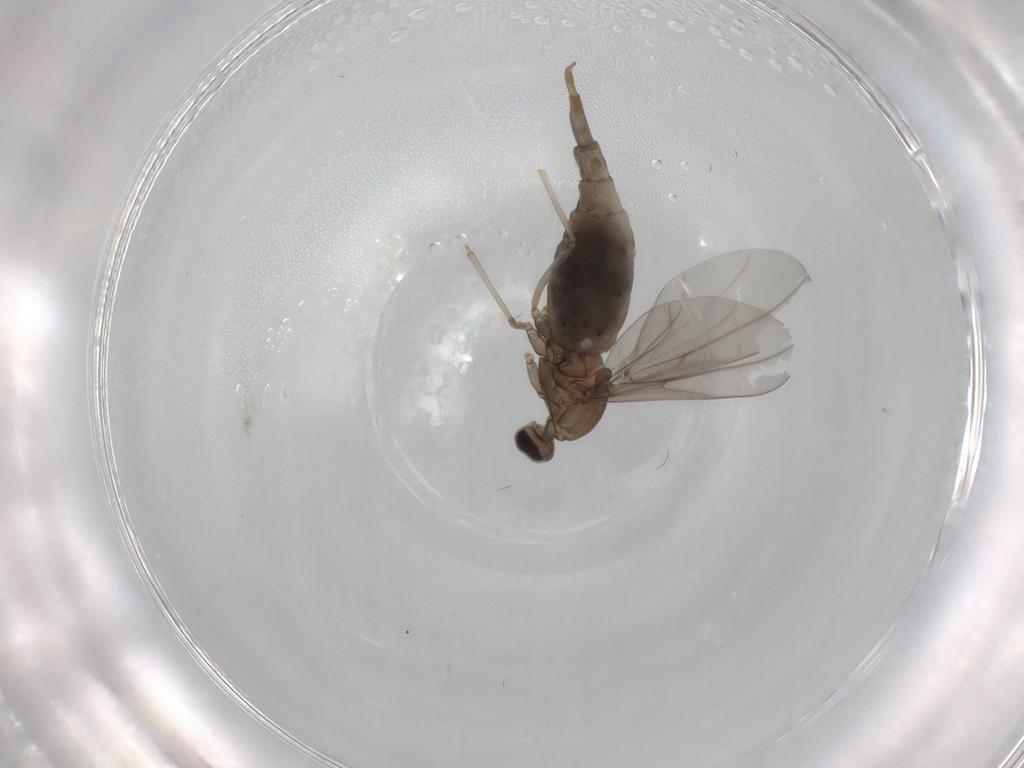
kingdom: Animalia
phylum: Arthropoda
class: Insecta
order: Diptera
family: Cecidomyiidae
